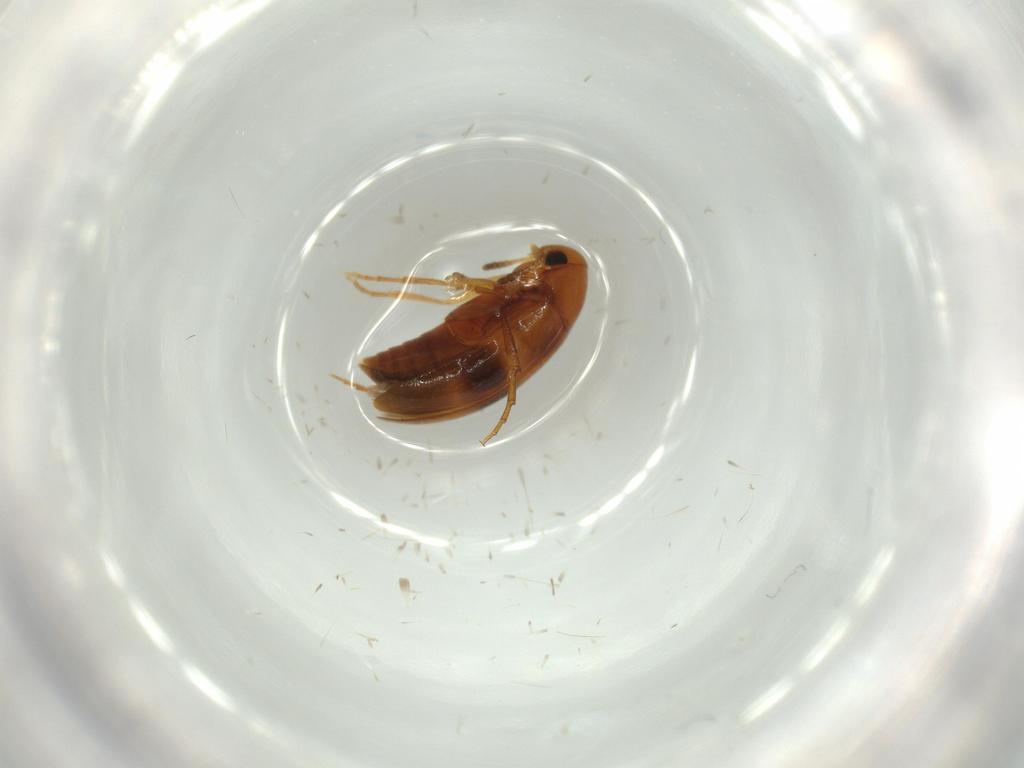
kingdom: Animalia
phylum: Arthropoda
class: Insecta
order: Coleoptera
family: Scraptiidae
